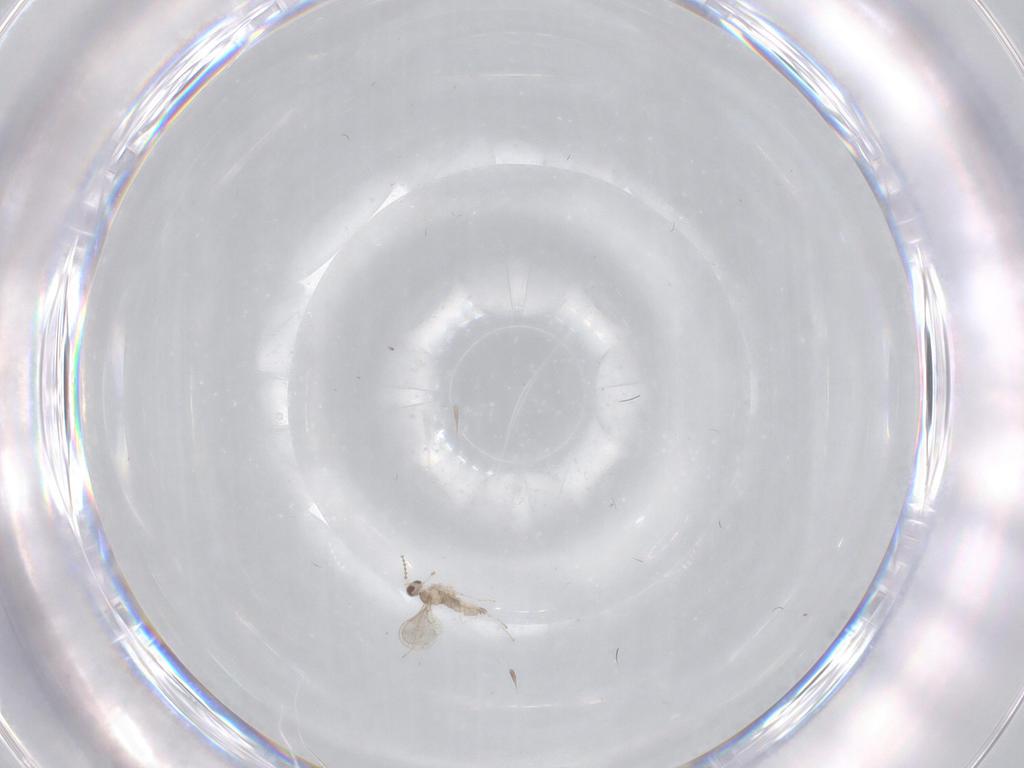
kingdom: Animalia
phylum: Arthropoda
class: Insecta
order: Diptera
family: Cecidomyiidae
